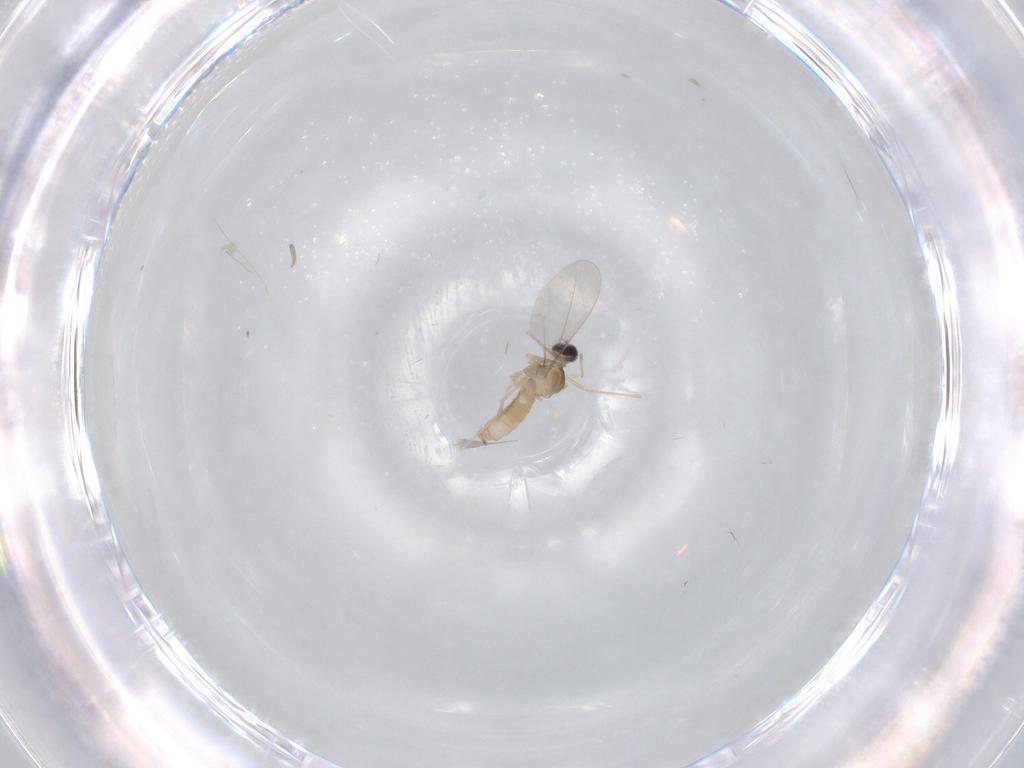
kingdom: Animalia
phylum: Arthropoda
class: Insecta
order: Diptera
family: Cecidomyiidae
